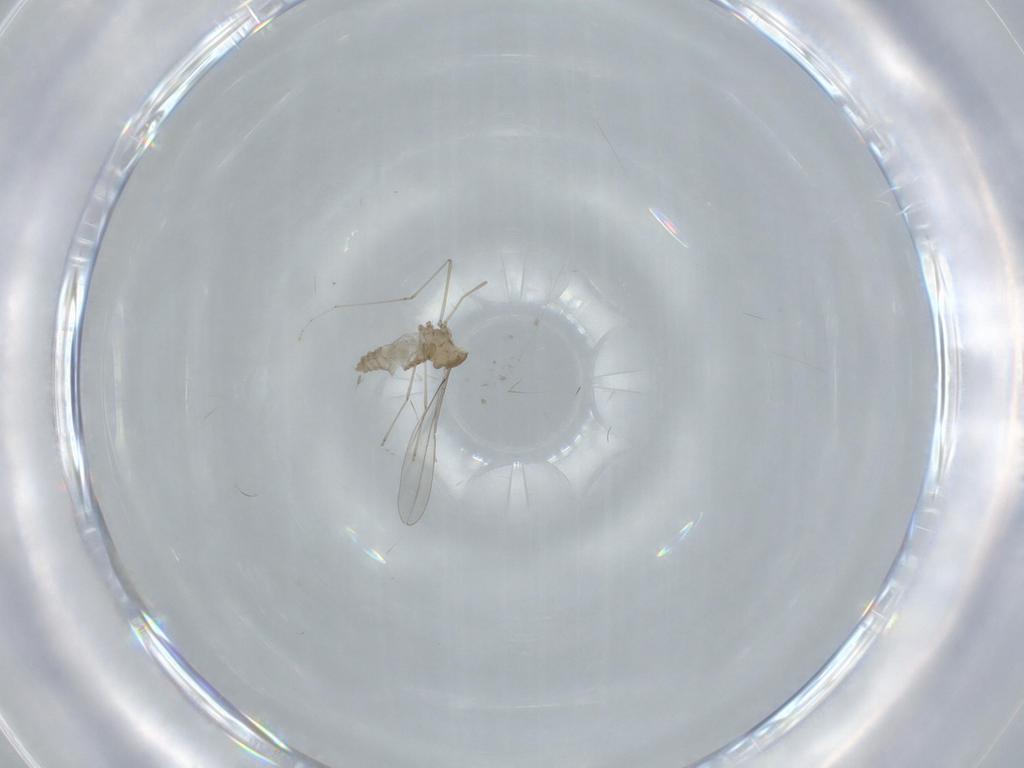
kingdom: Animalia
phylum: Arthropoda
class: Insecta
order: Diptera
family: Cecidomyiidae
